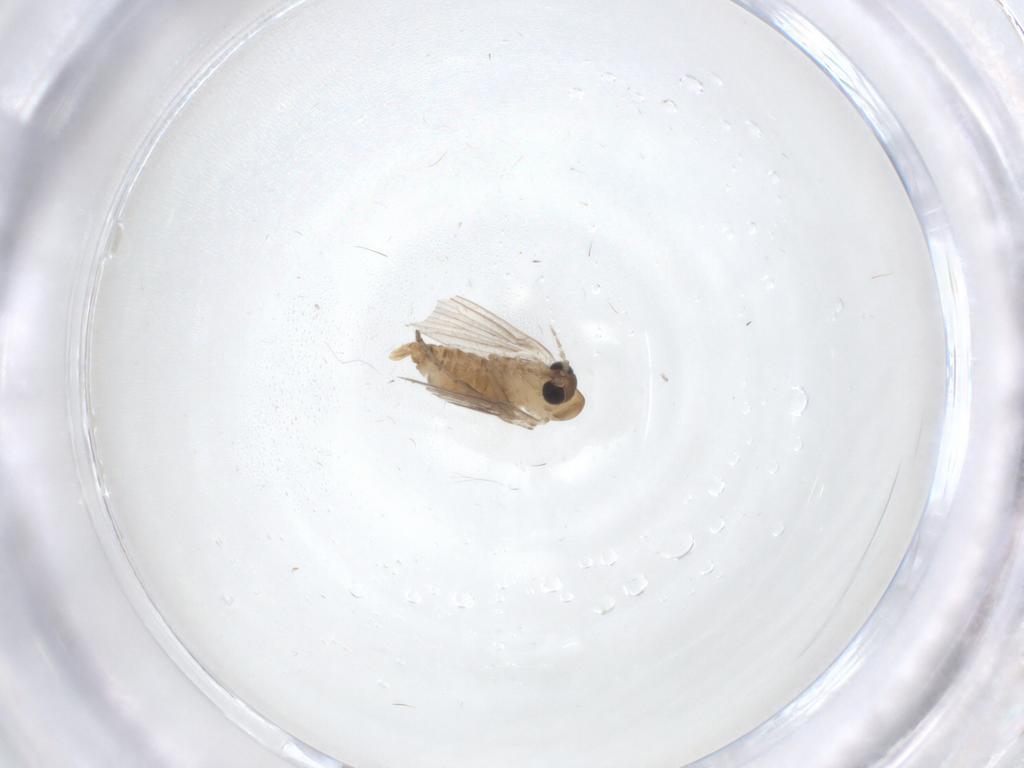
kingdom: Animalia
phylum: Arthropoda
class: Insecta
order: Diptera
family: Psychodidae
